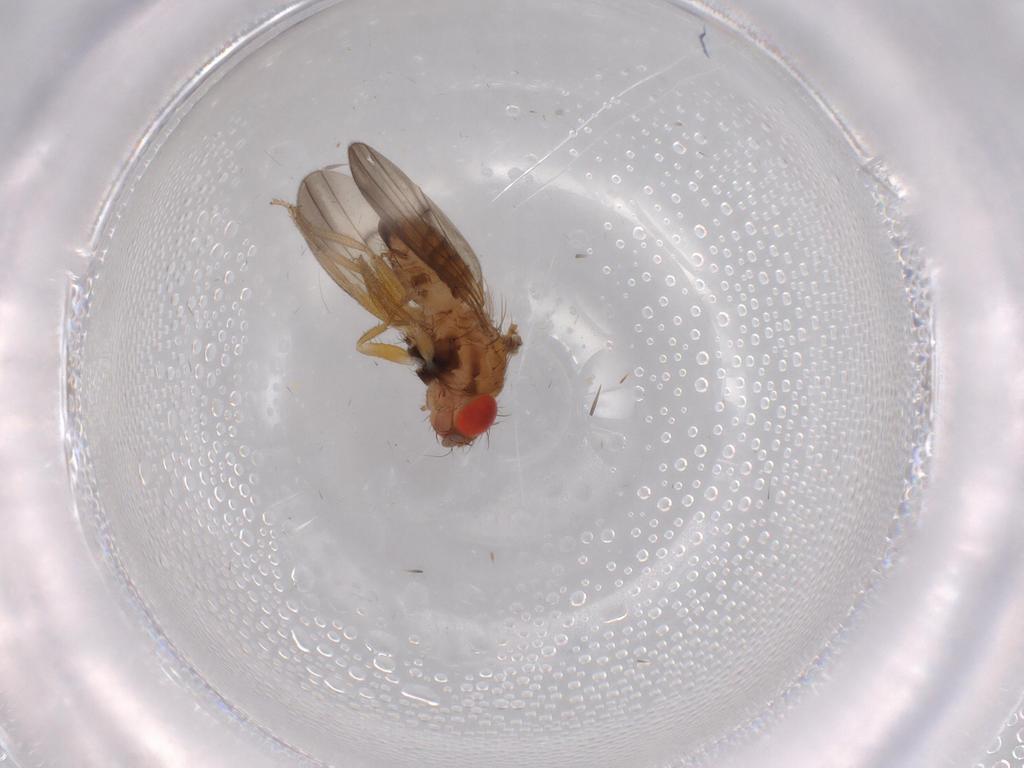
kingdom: Animalia
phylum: Arthropoda
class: Insecta
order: Diptera
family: Drosophilidae
